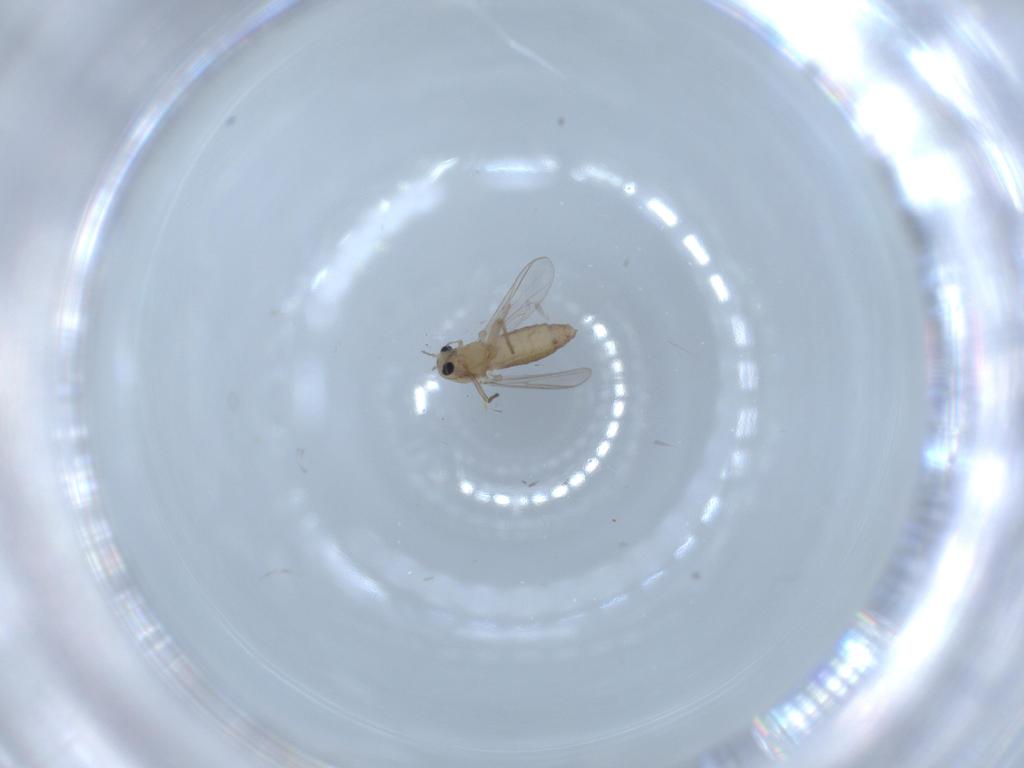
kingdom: Animalia
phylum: Arthropoda
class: Insecta
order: Diptera
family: Chironomidae
